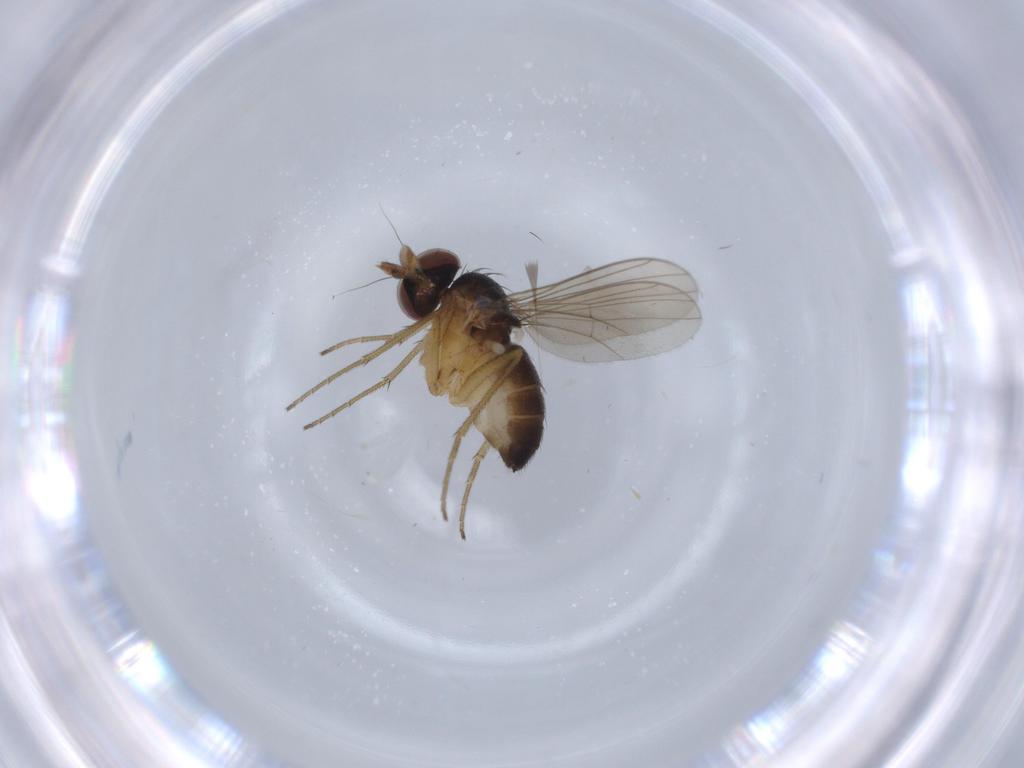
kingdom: Animalia
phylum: Arthropoda
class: Insecta
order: Diptera
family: Dolichopodidae
